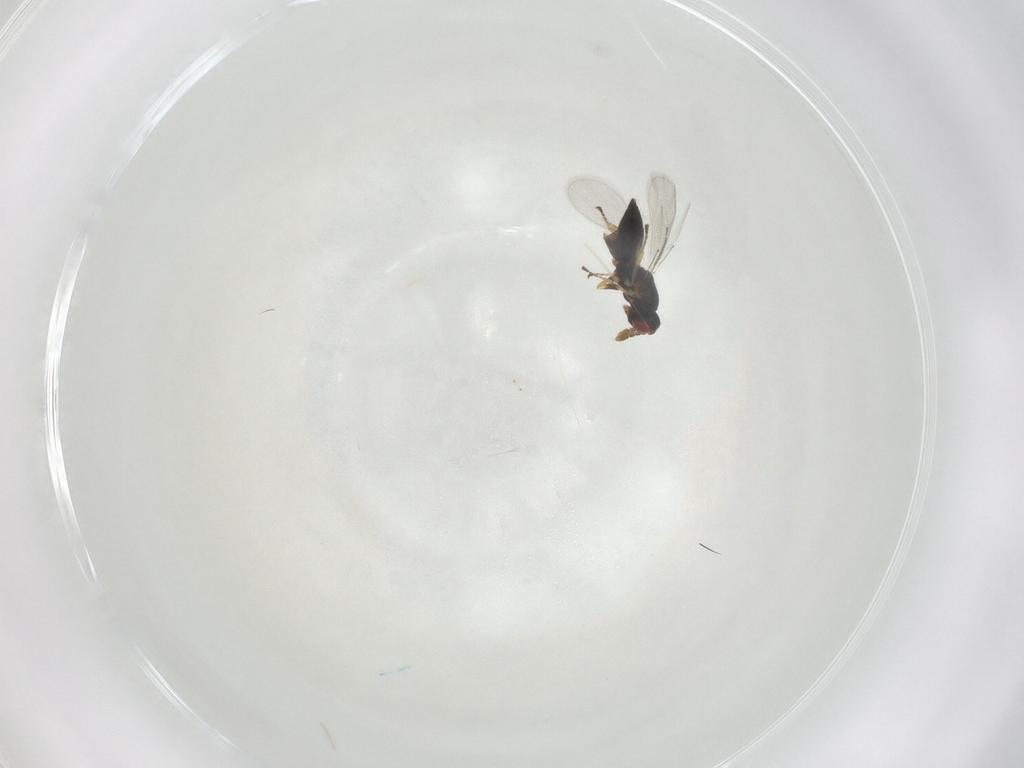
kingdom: Animalia
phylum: Arthropoda
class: Insecta
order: Hymenoptera
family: Eulophidae
